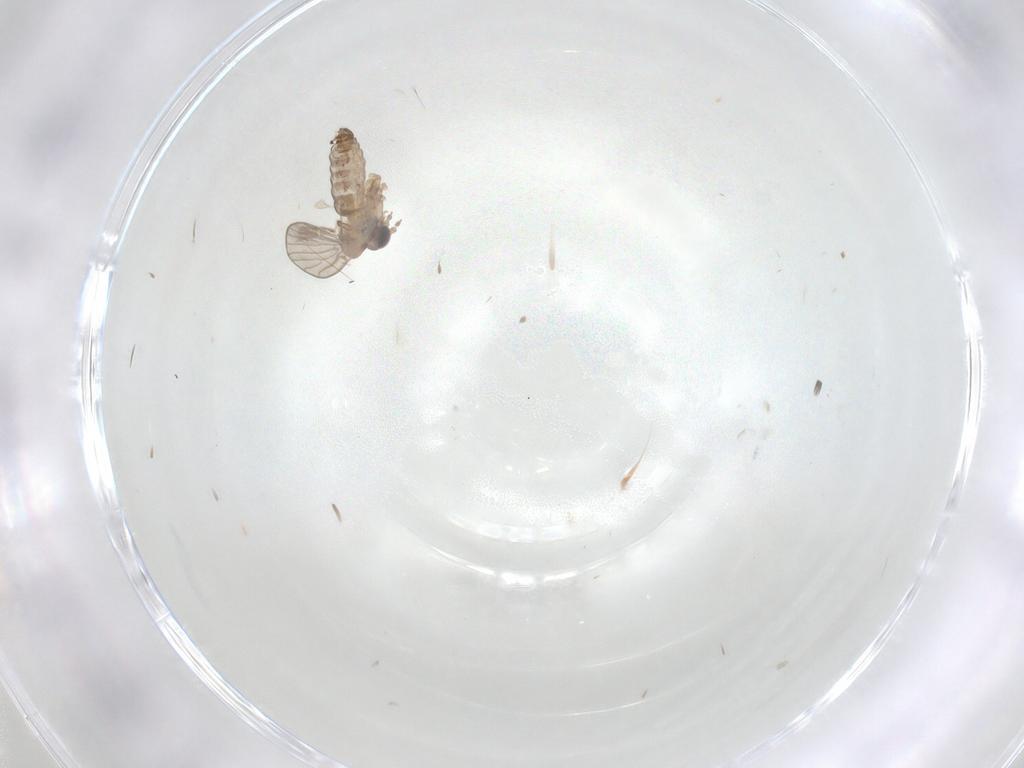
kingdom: Animalia
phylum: Arthropoda
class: Insecta
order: Diptera
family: Psychodidae
